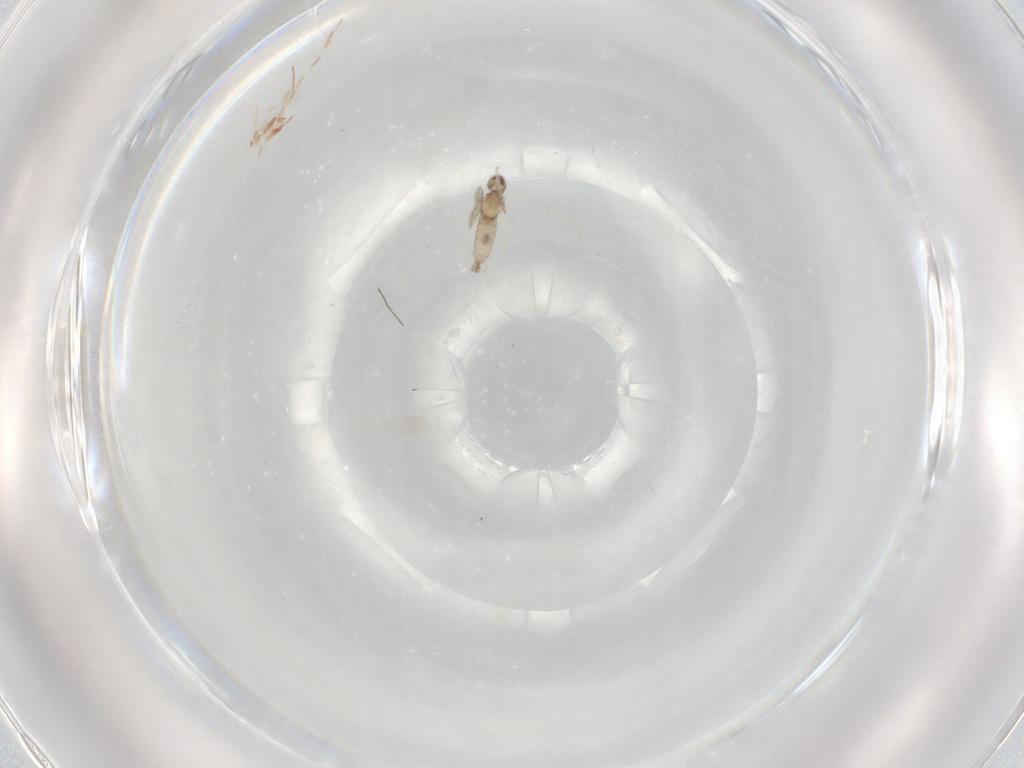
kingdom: Animalia
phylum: Arthropoda
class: Insecta
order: Diptera
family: Cecidomyiidae
